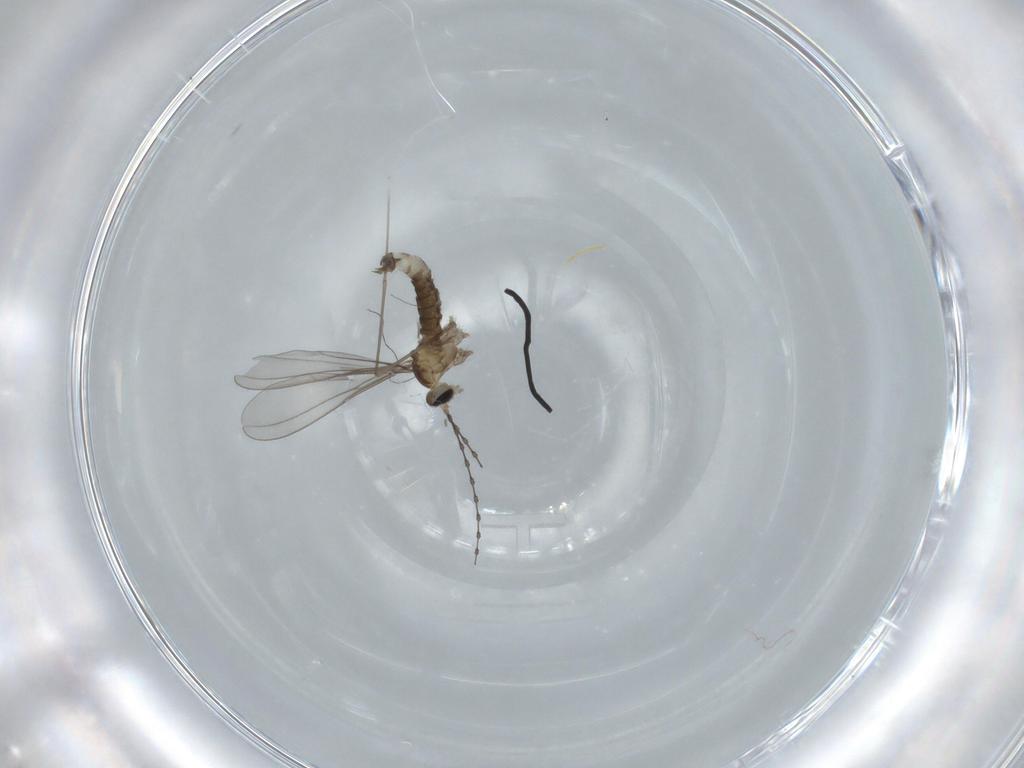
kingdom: Animalia
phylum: Arthropoda
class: Insecta
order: Diptera
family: Cecidomyiidae
